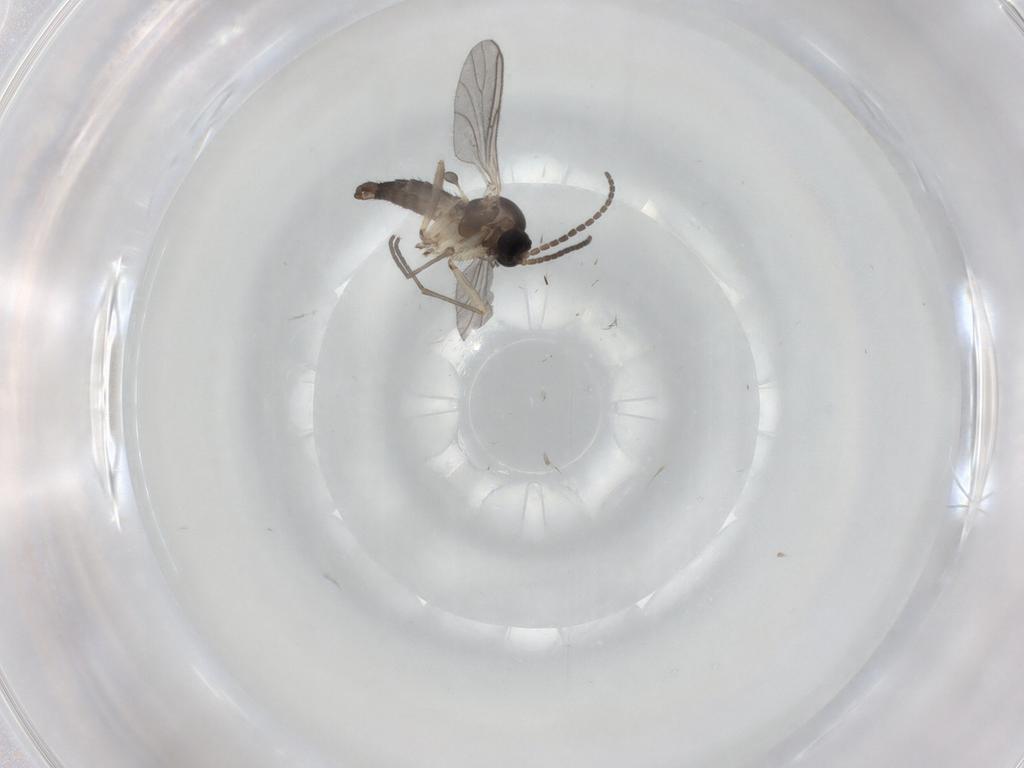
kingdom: Animalia
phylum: Arthropoda
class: Insecta
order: Diptera
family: Sciaridae
